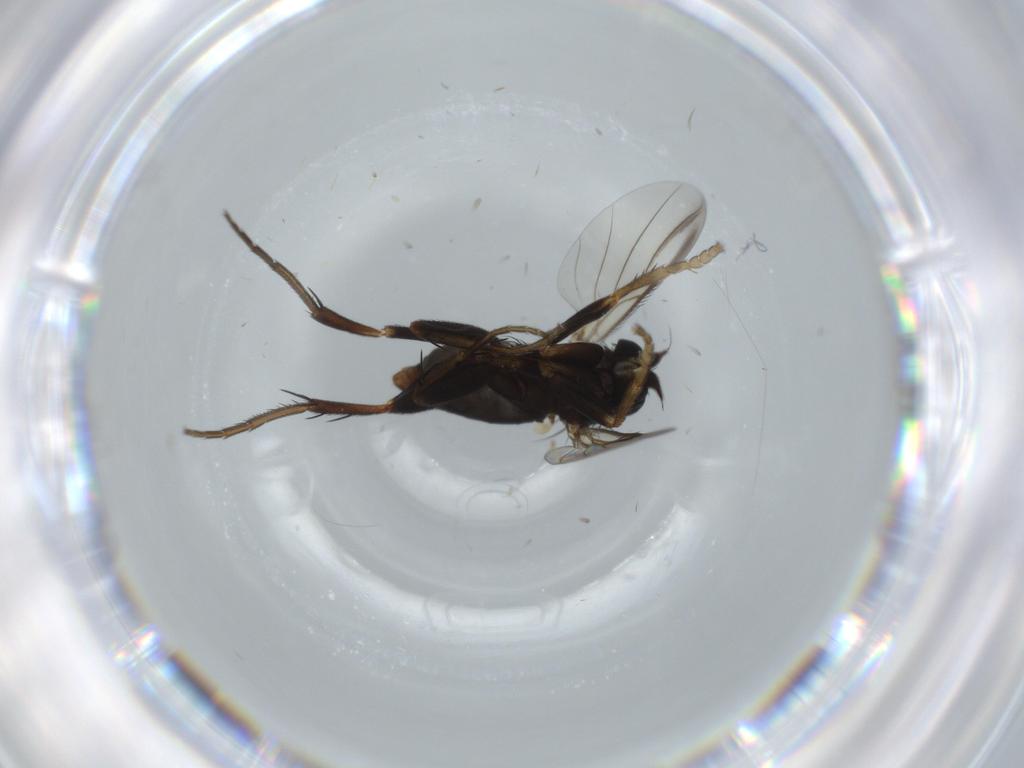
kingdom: Animalia
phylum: Arthropoda
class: Insecta
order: Diptera
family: Phoridae
